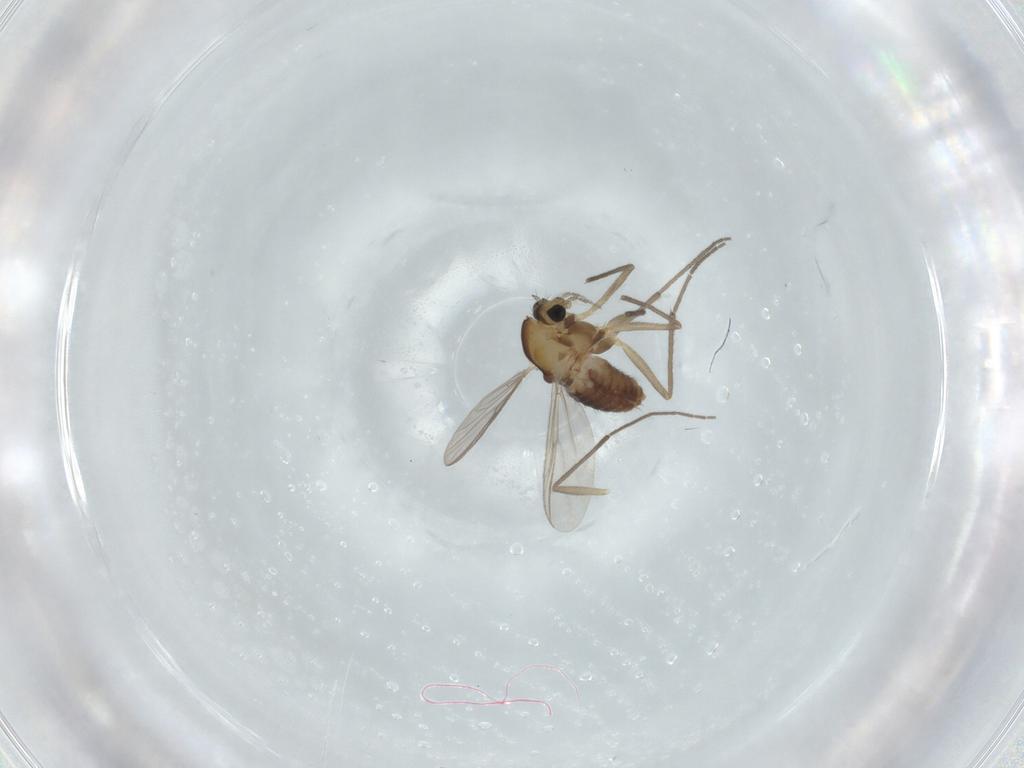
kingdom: Animalia
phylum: Arthropoda
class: Insecta
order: Diptera
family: Chironomidae
